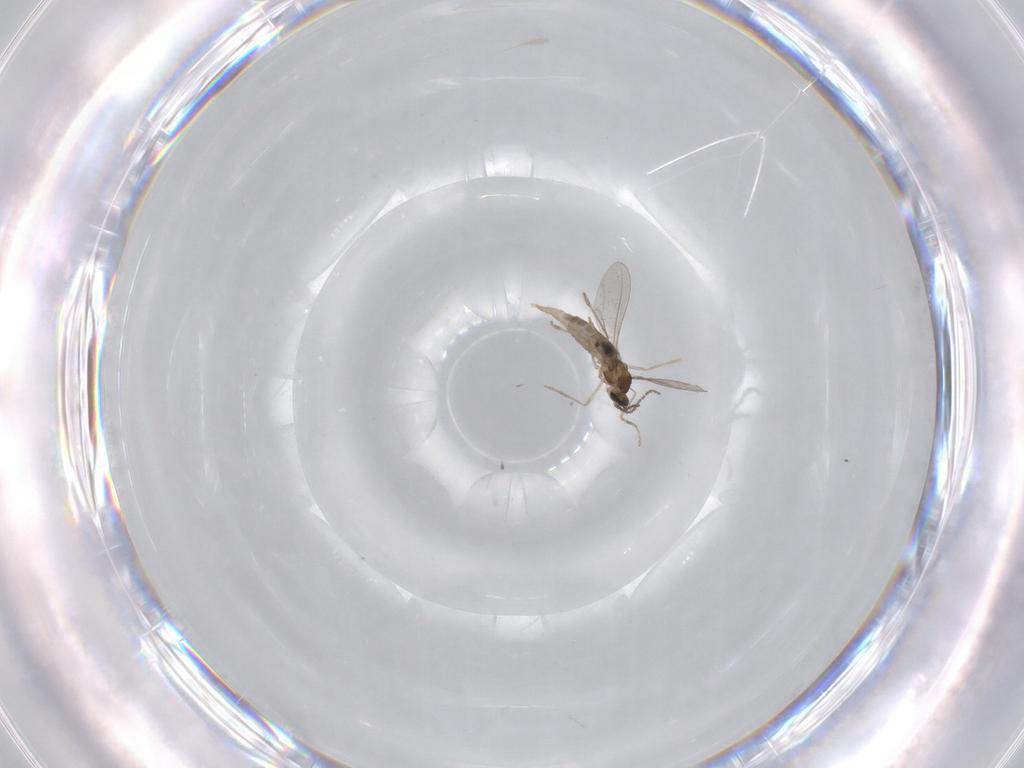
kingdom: Animalia
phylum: Arthropoda
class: Insecta
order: Diptera
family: Psychodidae
